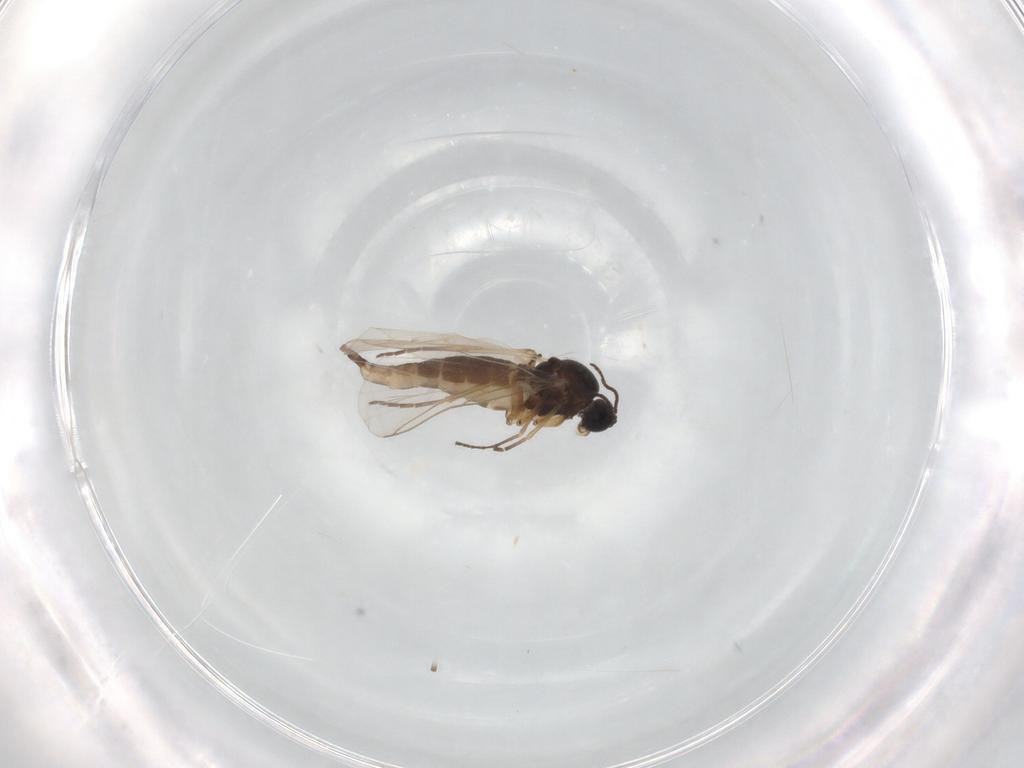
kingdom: Animalia
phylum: Arthropoda
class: Insecta
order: Diptera
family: Sciaridae
